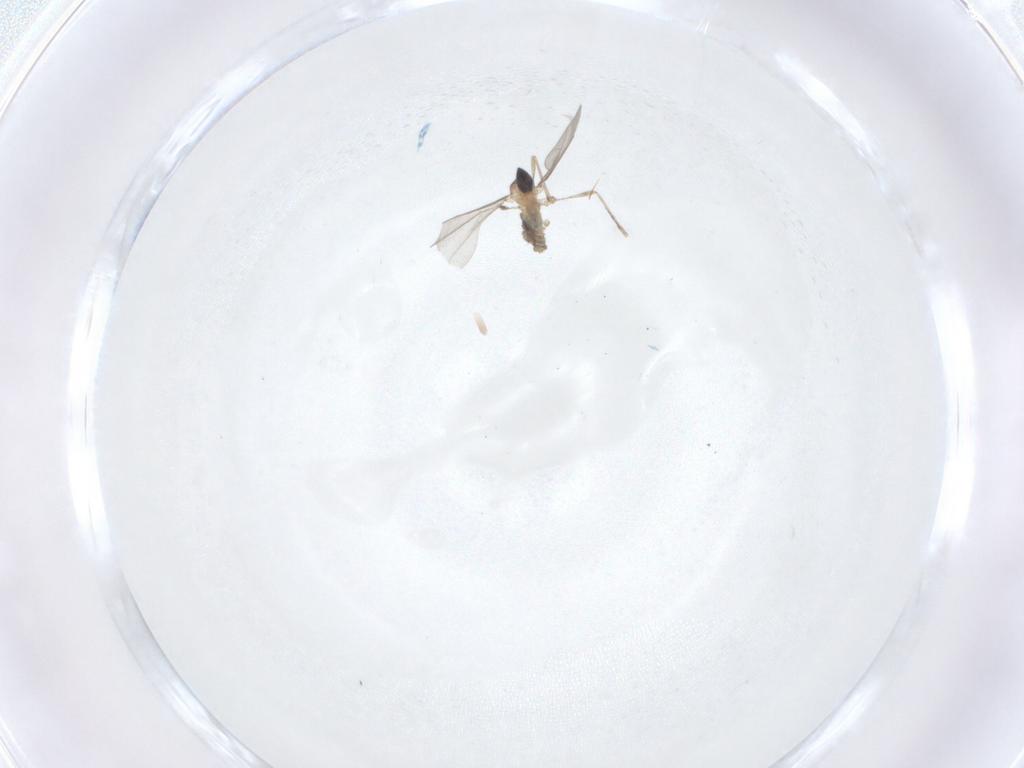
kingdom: Animalia
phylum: Arthropoda
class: Insecta
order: Diptera
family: Chironomidae
